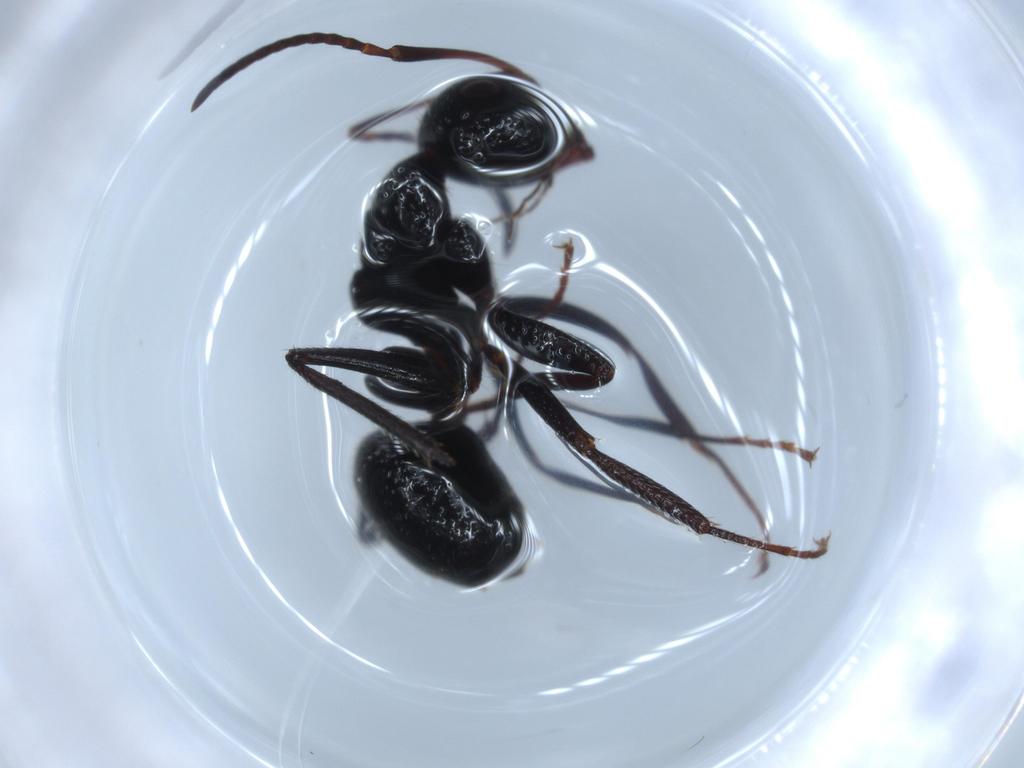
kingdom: Animalia
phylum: Arthropoda
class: Insecta
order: Hymenoptera
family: Formicidae
